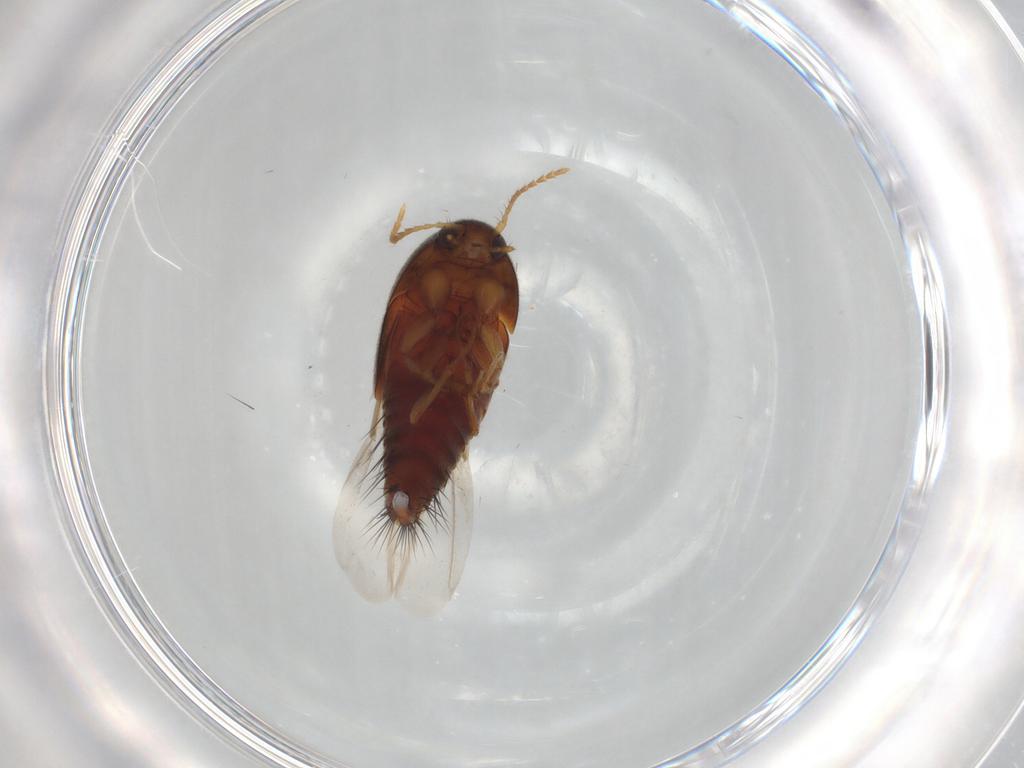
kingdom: Animalia
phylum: Arthropoda
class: Insecta
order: Coleoptera
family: Staphylinidae
